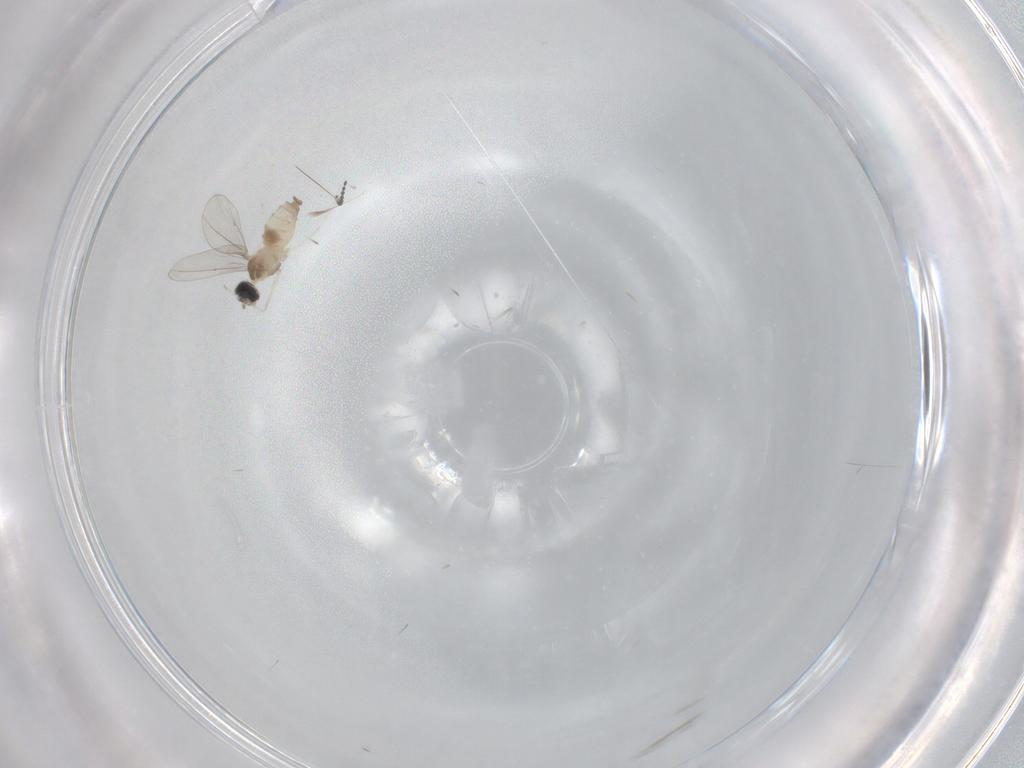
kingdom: Animalia
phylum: Arthropoda
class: Insecta
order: Diptera
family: Cecidomyiidae
